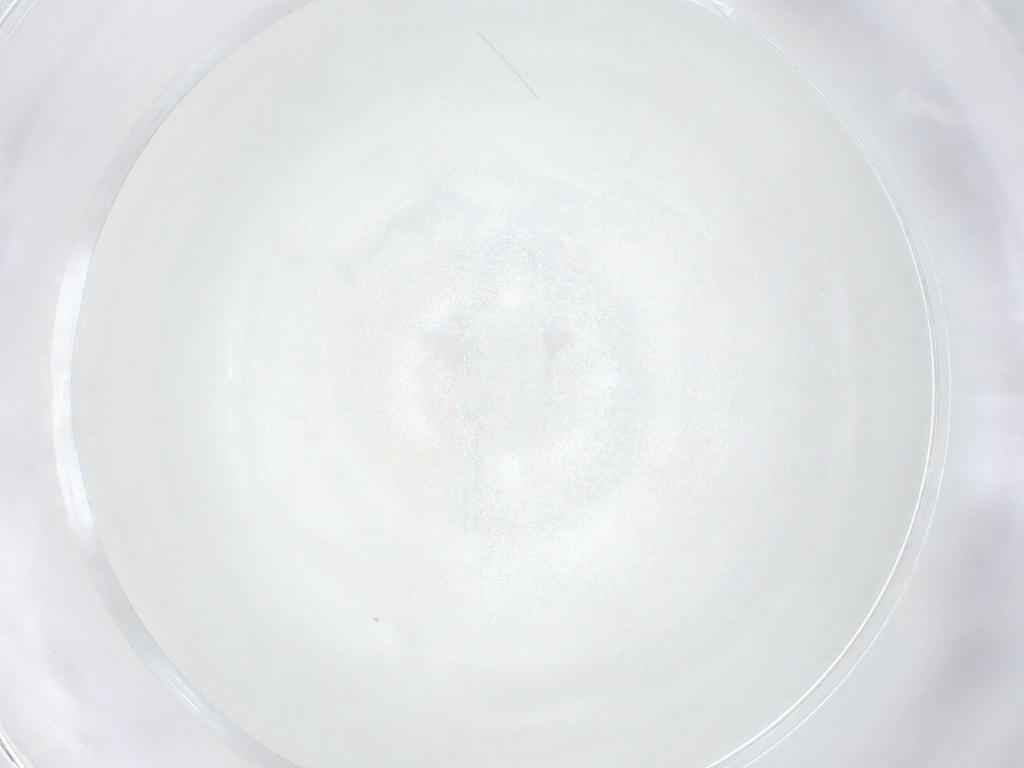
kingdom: Animalia
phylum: Arthropoda
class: Insecta
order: Hymenoptera
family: Mymaridae
